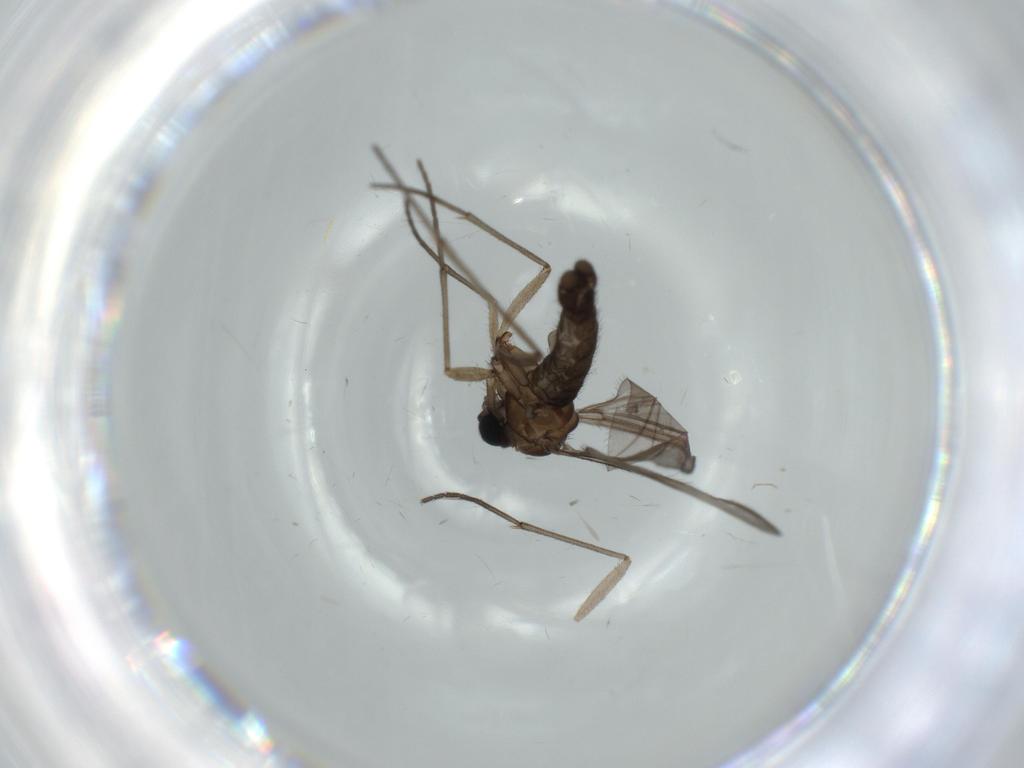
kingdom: Animalia
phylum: Arthropoda
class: Insecta
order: Diptera
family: Sciaridae
